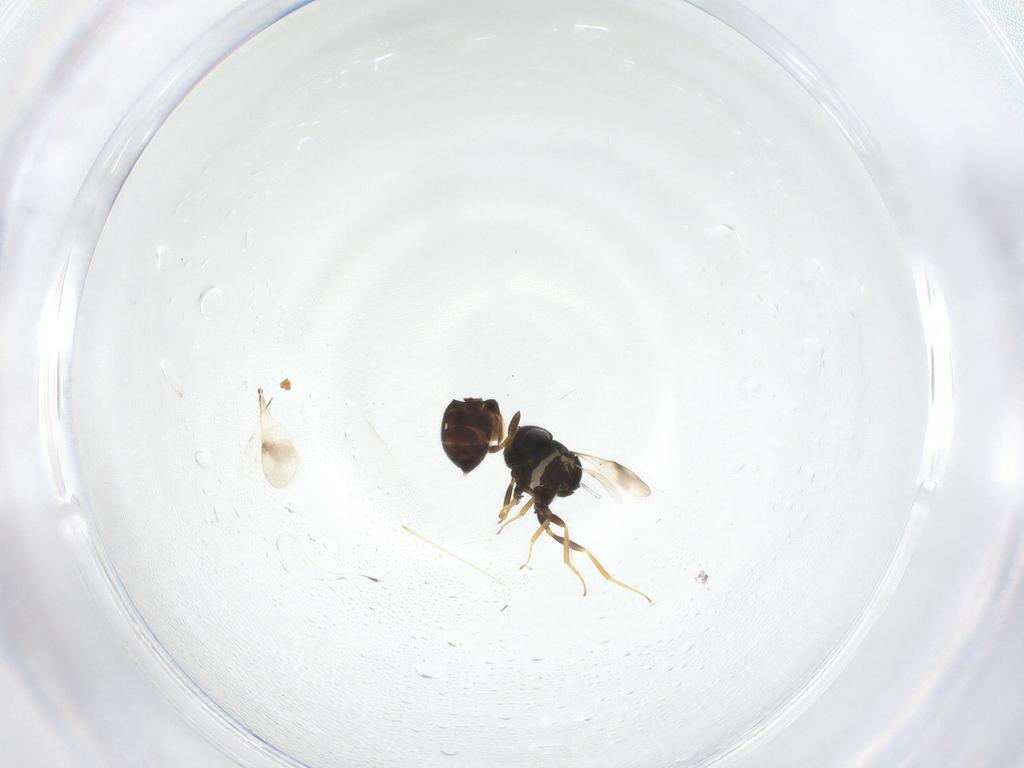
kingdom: Animalia
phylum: Arthropoda
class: Insecta
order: Hymenoptera
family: Scelionidae
